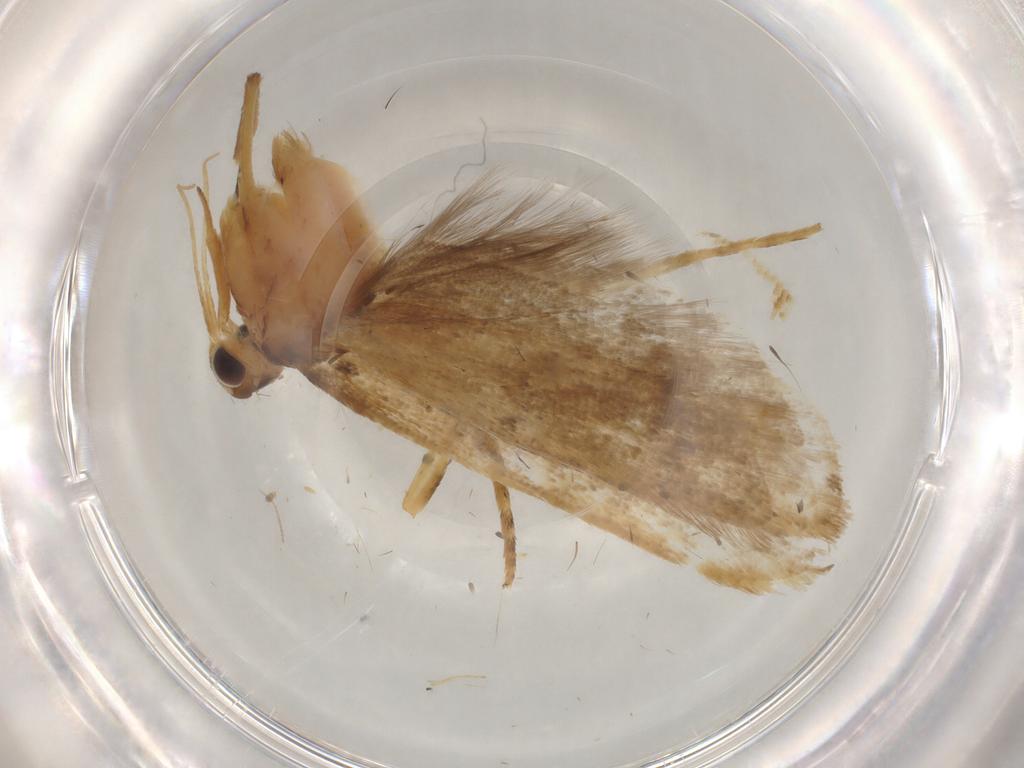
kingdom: Animalia
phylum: Arthropoda
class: Insecta
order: Lepidoptera
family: Lecithoceridae
